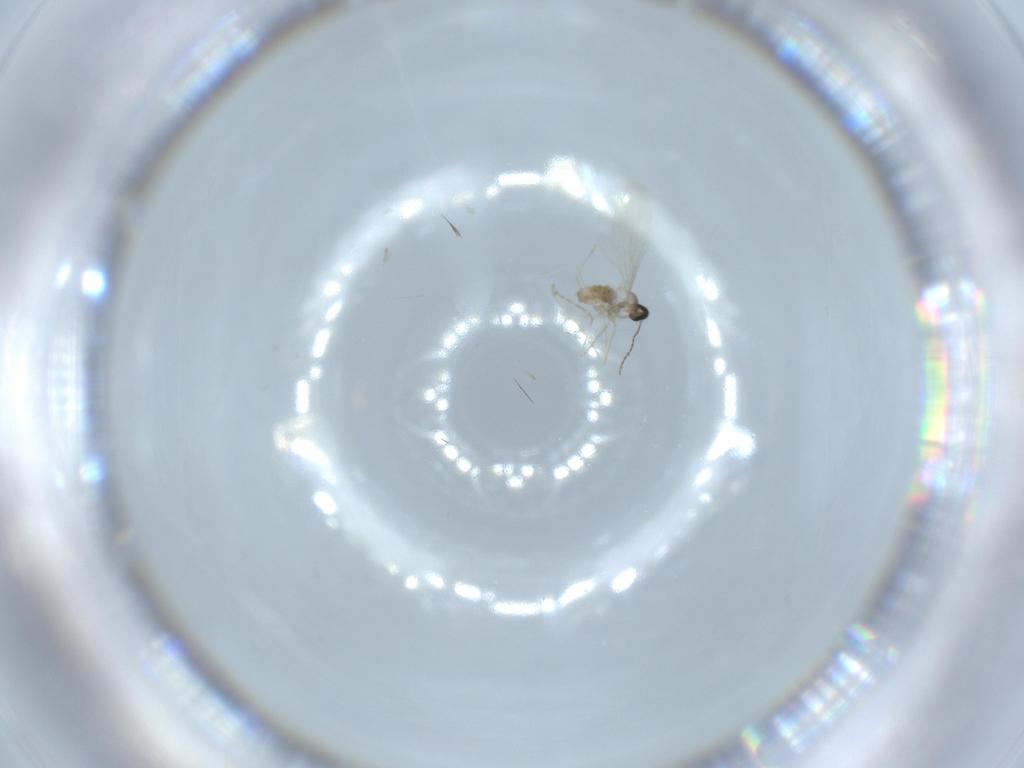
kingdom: Animalia
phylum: Arthropoda
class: Insecta
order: Diptera
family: Cecidomyiidae
